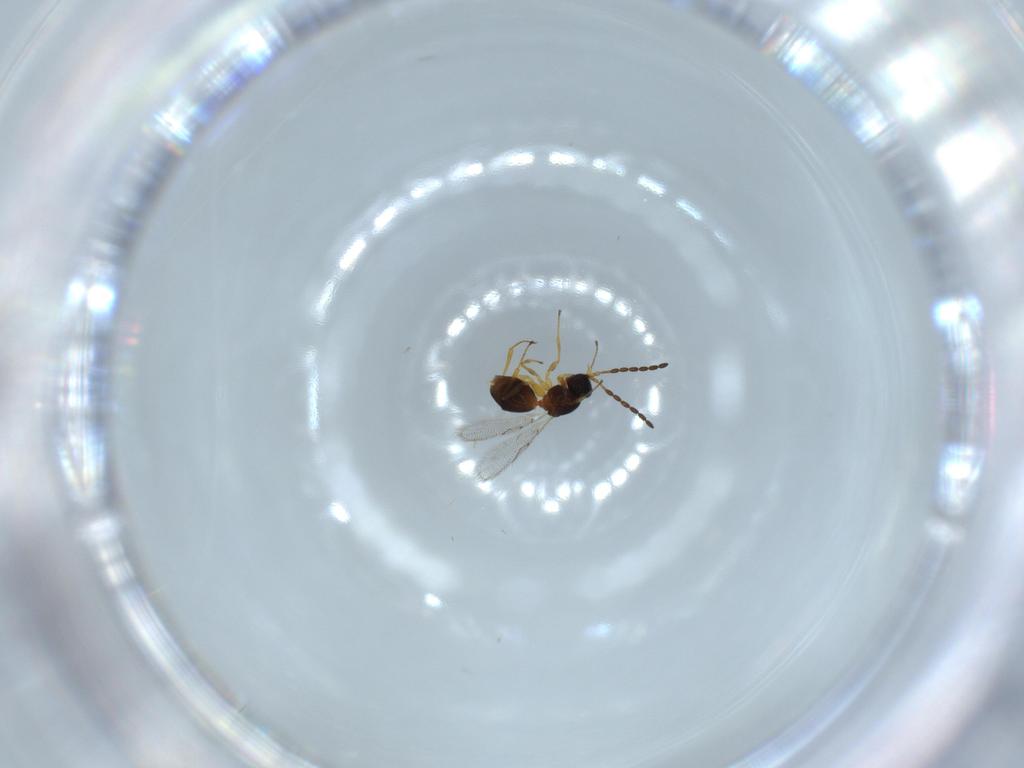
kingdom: Animalia
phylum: Arthropoda
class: Insecta
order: Hymenoptera
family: Figitidae
